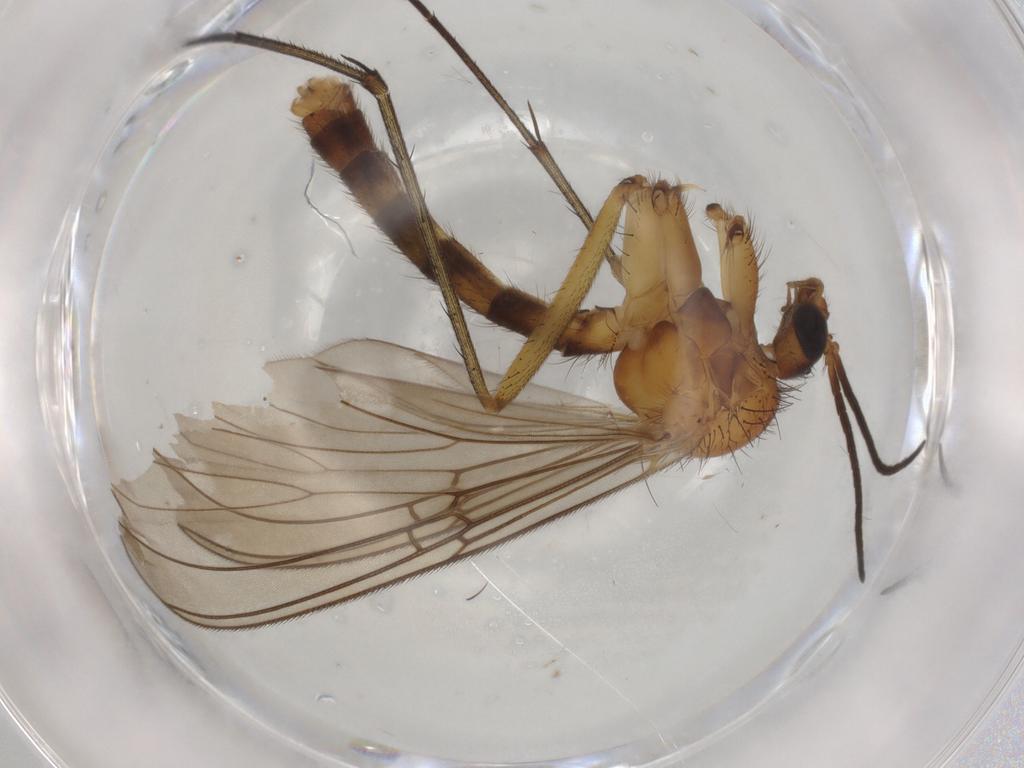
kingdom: Animalia
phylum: Arthropoda
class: Insecta
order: Diptera
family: Mycetophilidae
